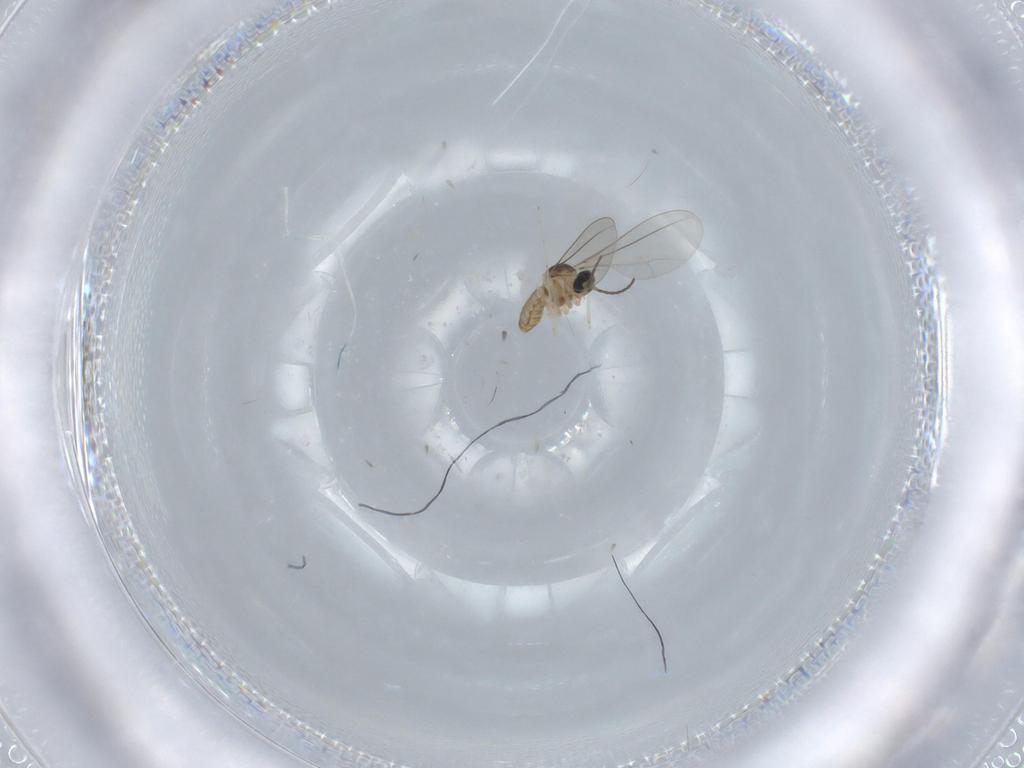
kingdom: Animalia
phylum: Arthropoda
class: Insecta
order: Diptera
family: Cecidomyiidae
